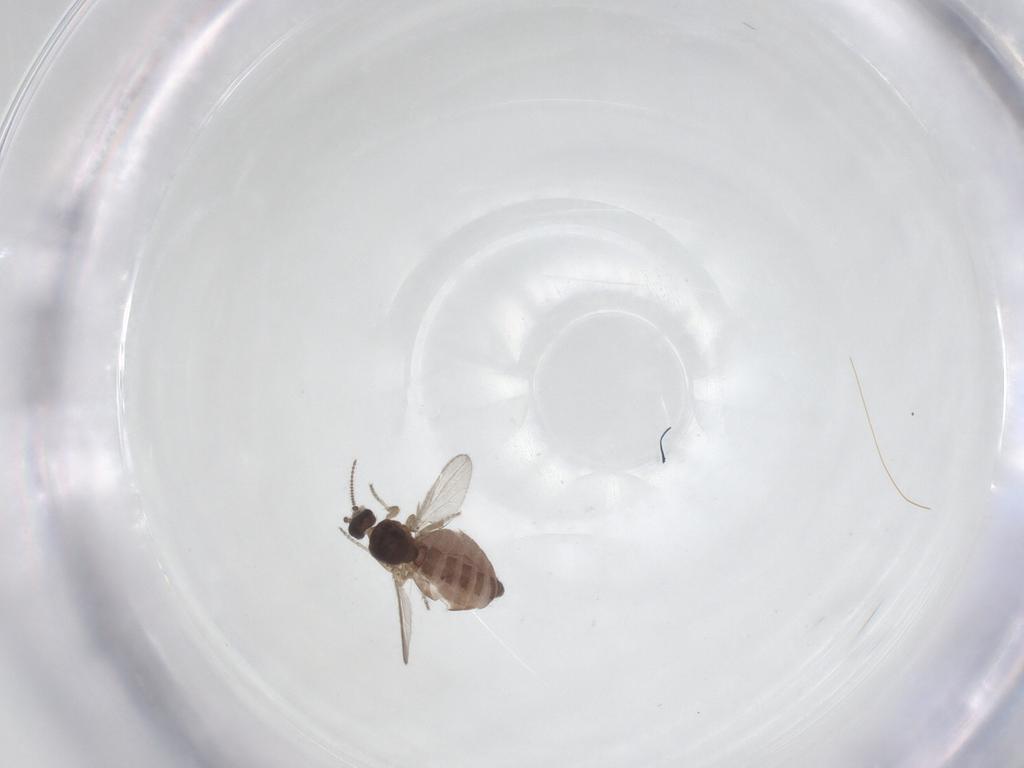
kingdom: Animalia
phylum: Arthropoda
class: Insecta
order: Diptera
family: Ceratopogonidae
